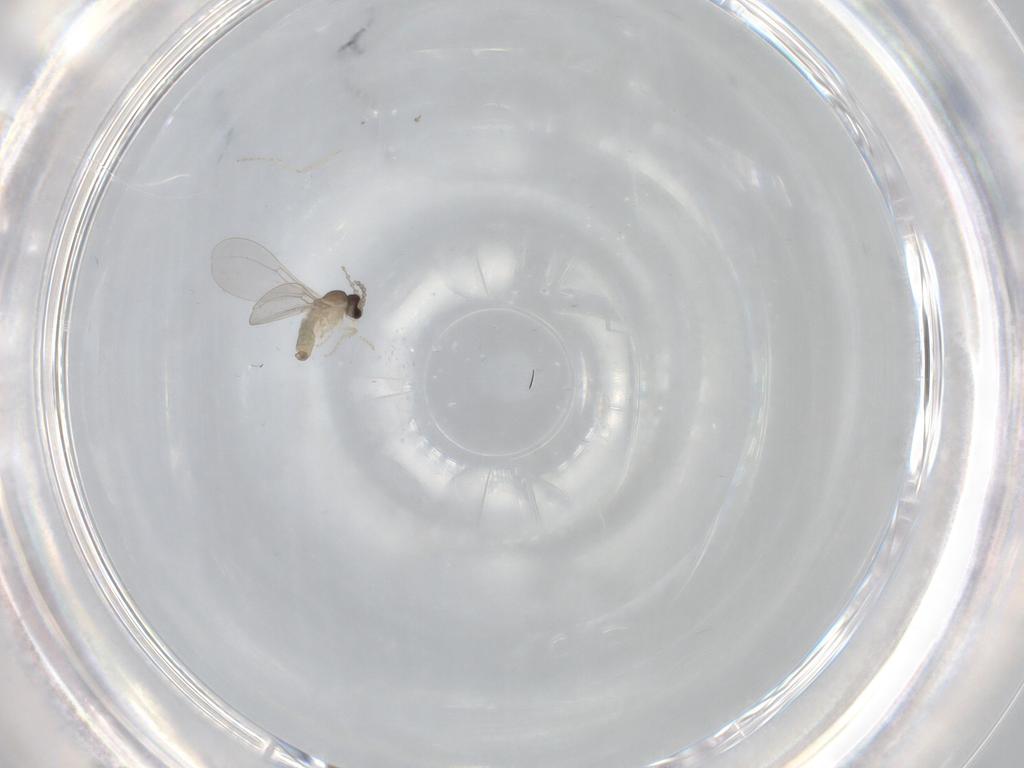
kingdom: Animalia
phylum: Arthropoda
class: Insecta
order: Diptera
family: Cecidomyiidae
